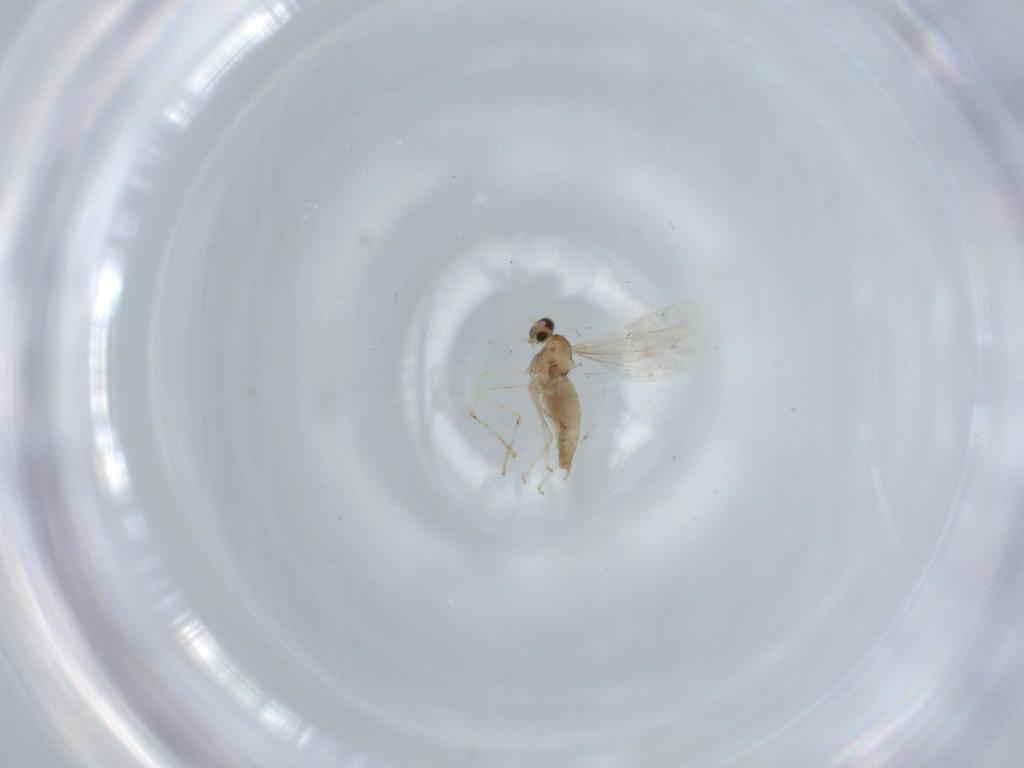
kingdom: Animalia
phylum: Arthropoda
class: Insecta
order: Diptera
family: Cecidomyiidae
